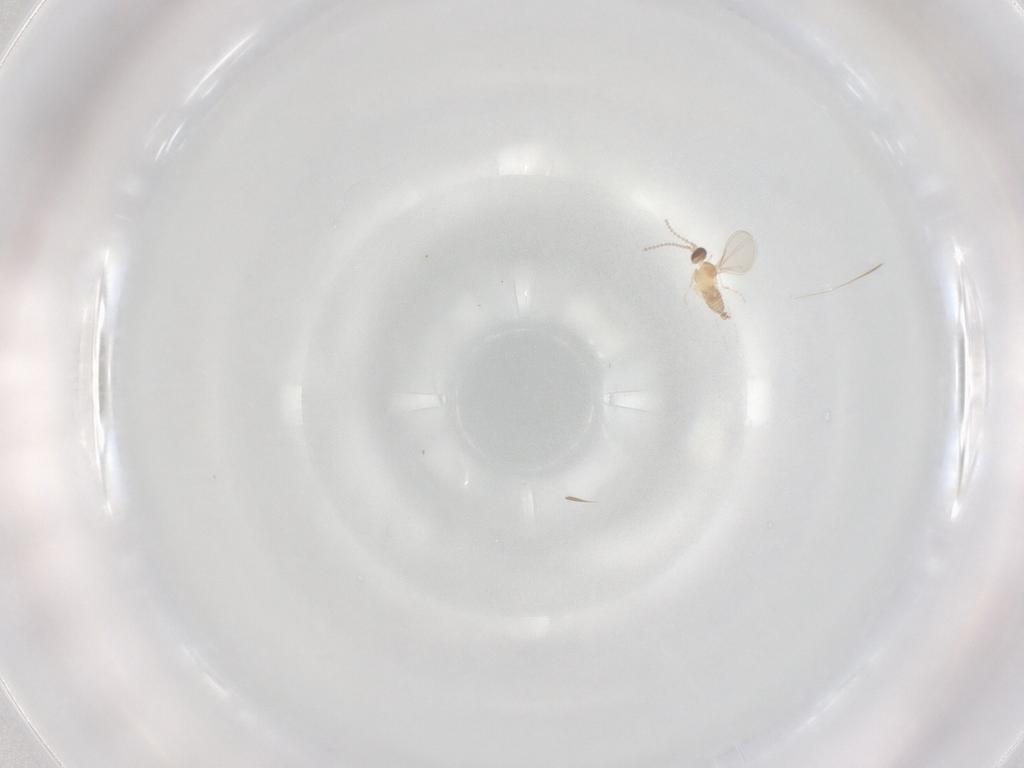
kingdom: Animalia
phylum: Arthropoda
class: Insecta
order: Diptera
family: Cecidomyiidae
